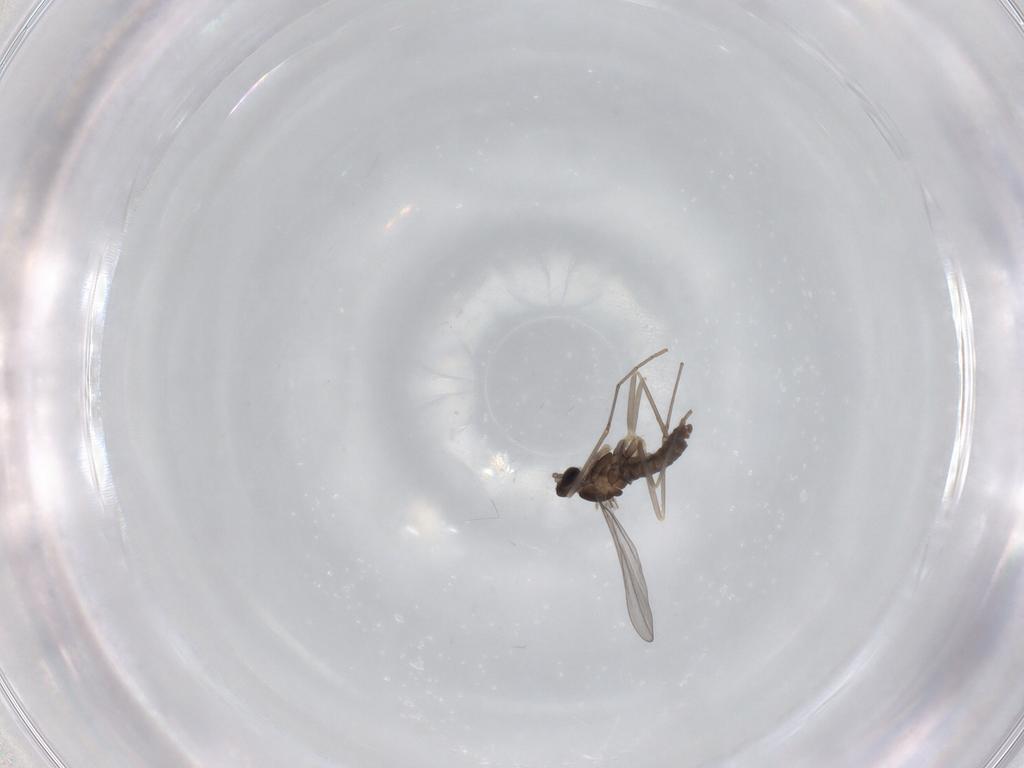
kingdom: Animalia
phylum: Arthropoda
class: Insecta
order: Diptera
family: Cecidomyiidae
